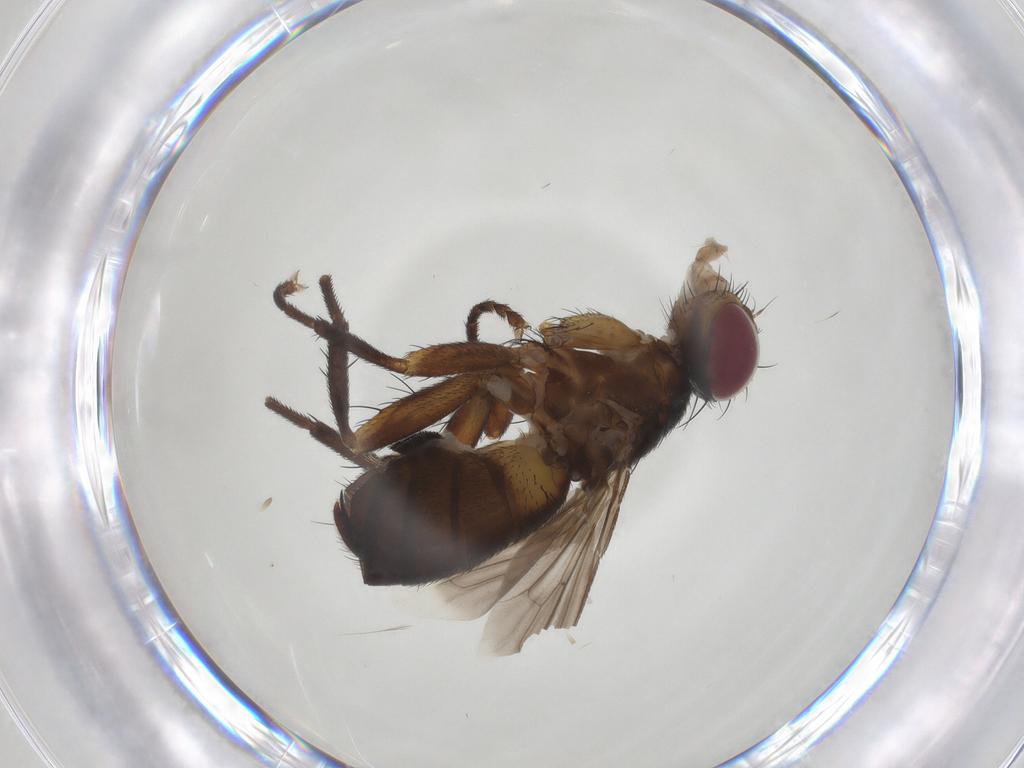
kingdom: Animalia
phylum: Arthropoda
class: Insecta
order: Diptera
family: Tachinidae
